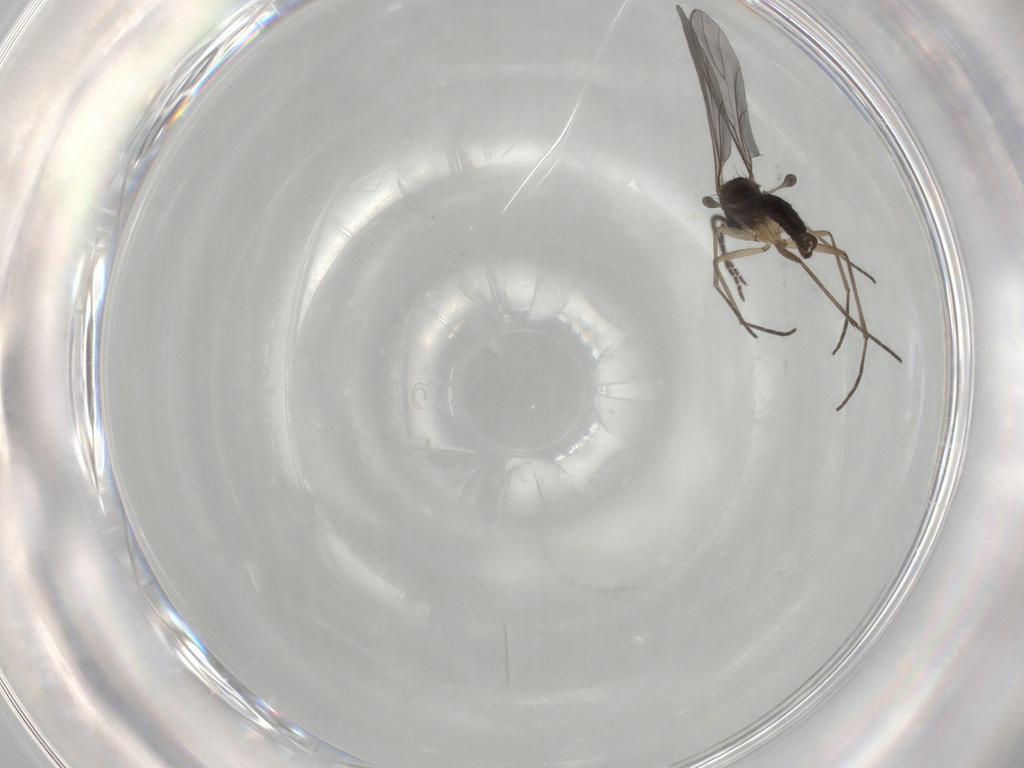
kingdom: Animalia
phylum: Arthropoda
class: Insecta
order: Diptera
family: Sciaridae
